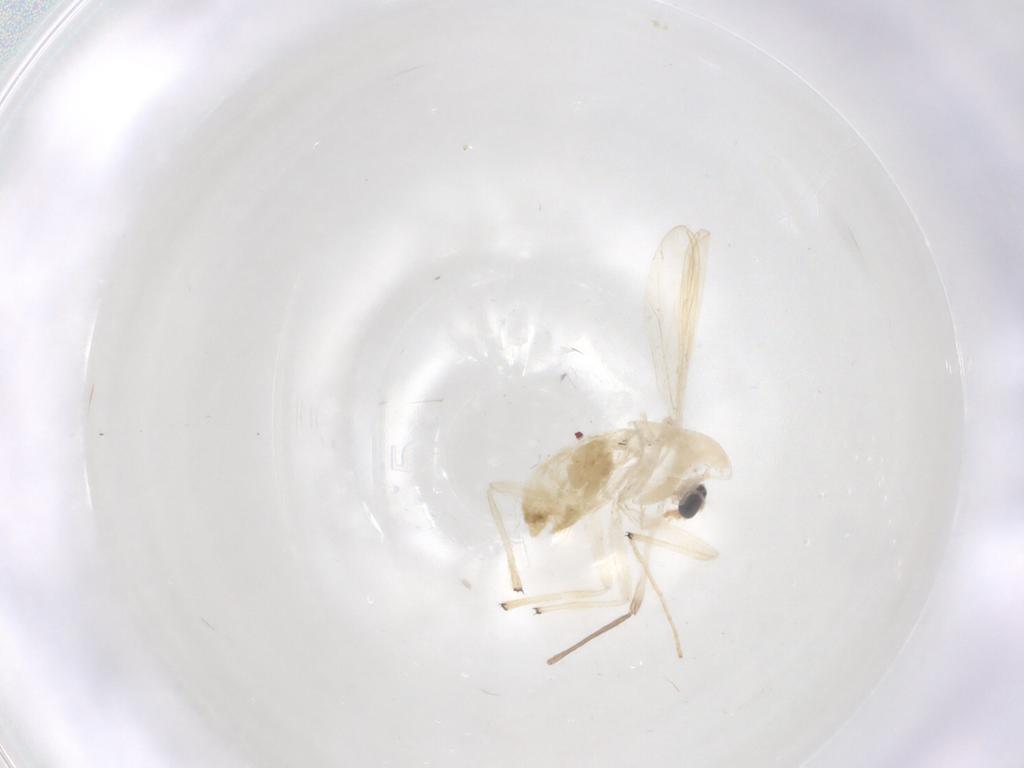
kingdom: Animalia
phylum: Arthropoda
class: Insecta
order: Diptera
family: Chironomidae
